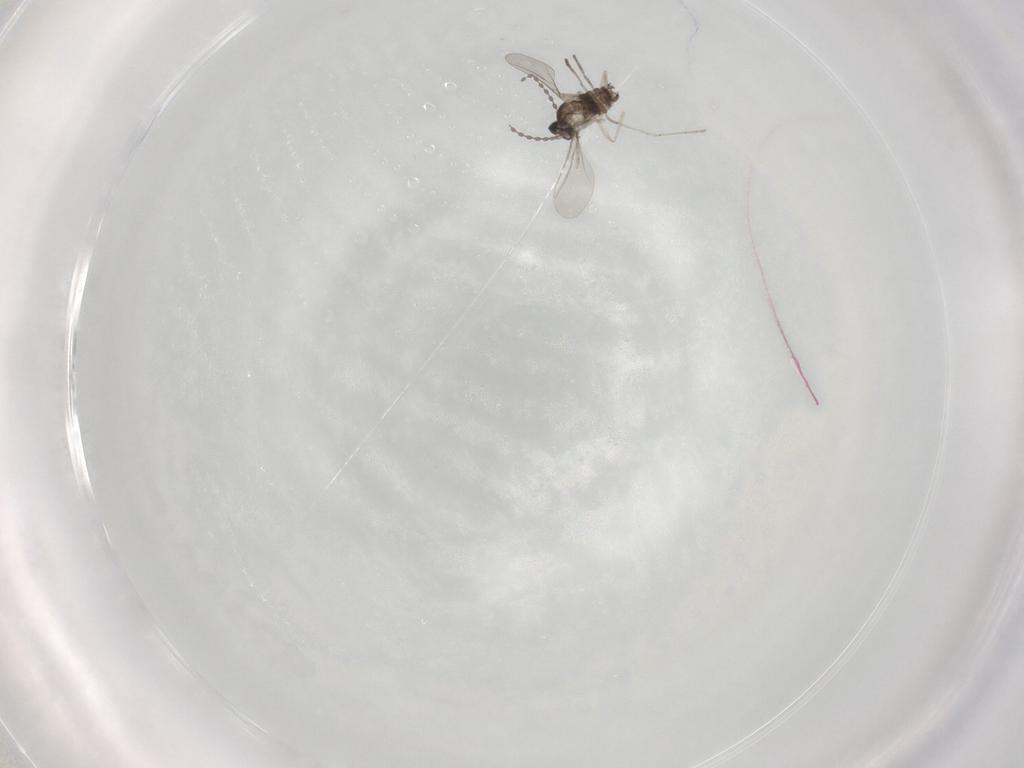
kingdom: Animalia
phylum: Arthropoda
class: Insecta
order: Diptera
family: Cecidomyiidae
